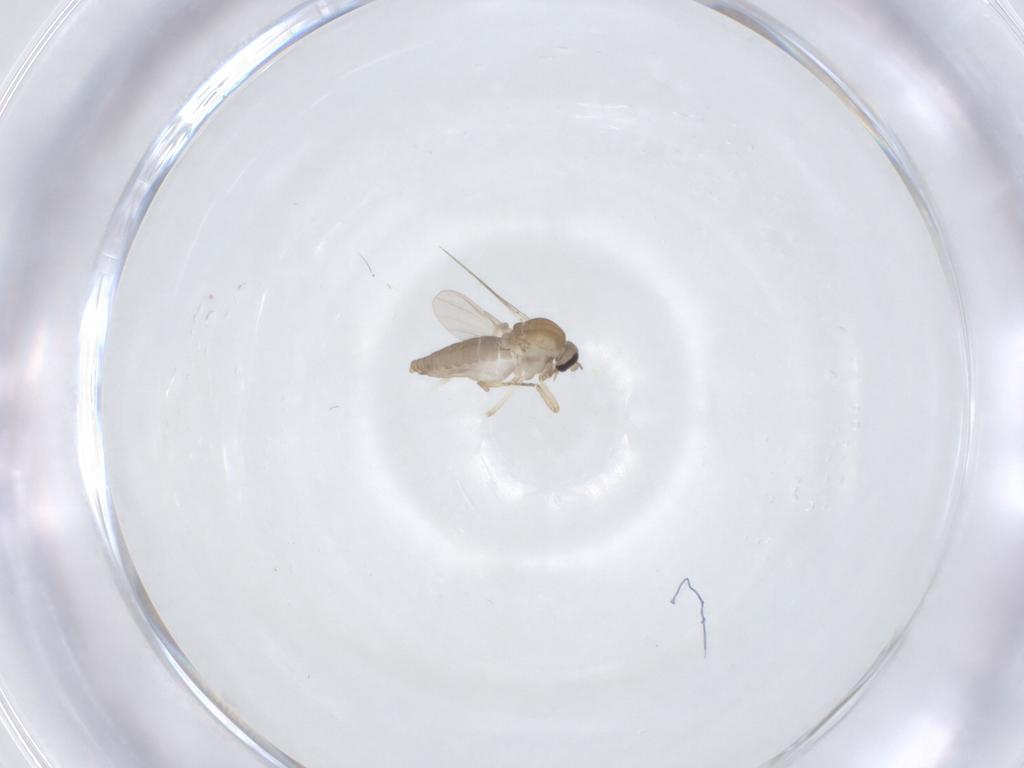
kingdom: Animalia
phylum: Arthropoda
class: Insecta
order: Diptera
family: Ceratopogonidae
